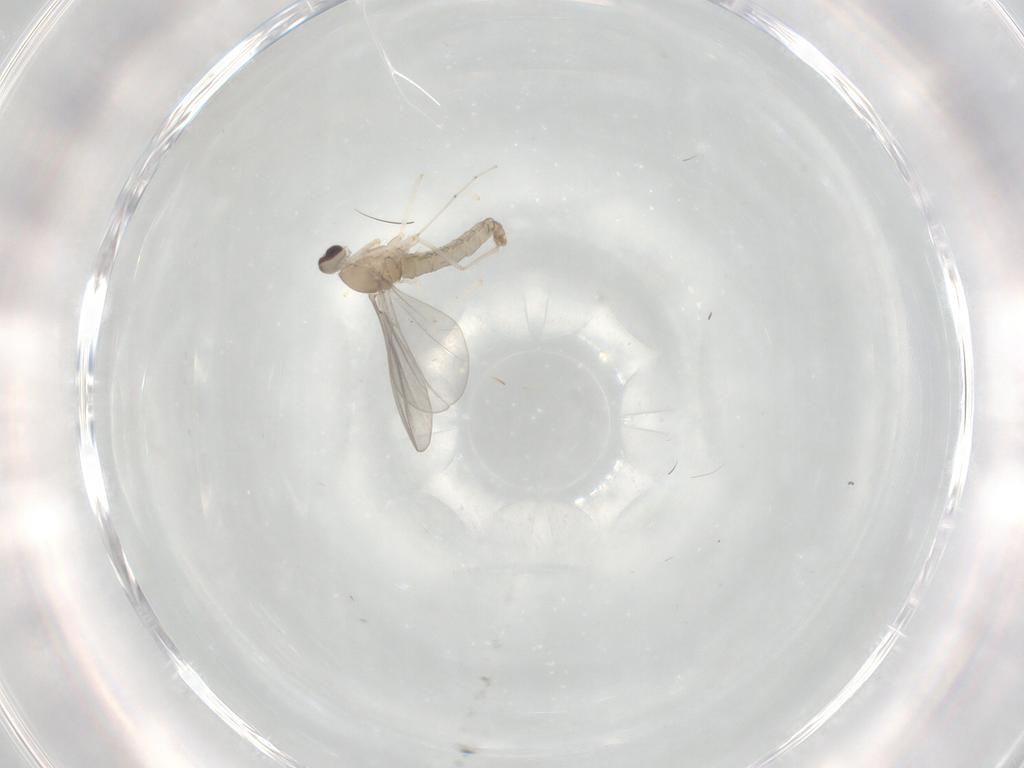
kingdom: Animalia
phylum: Arthropoda
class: Insecta
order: Diptera
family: Cecidomyiidae
